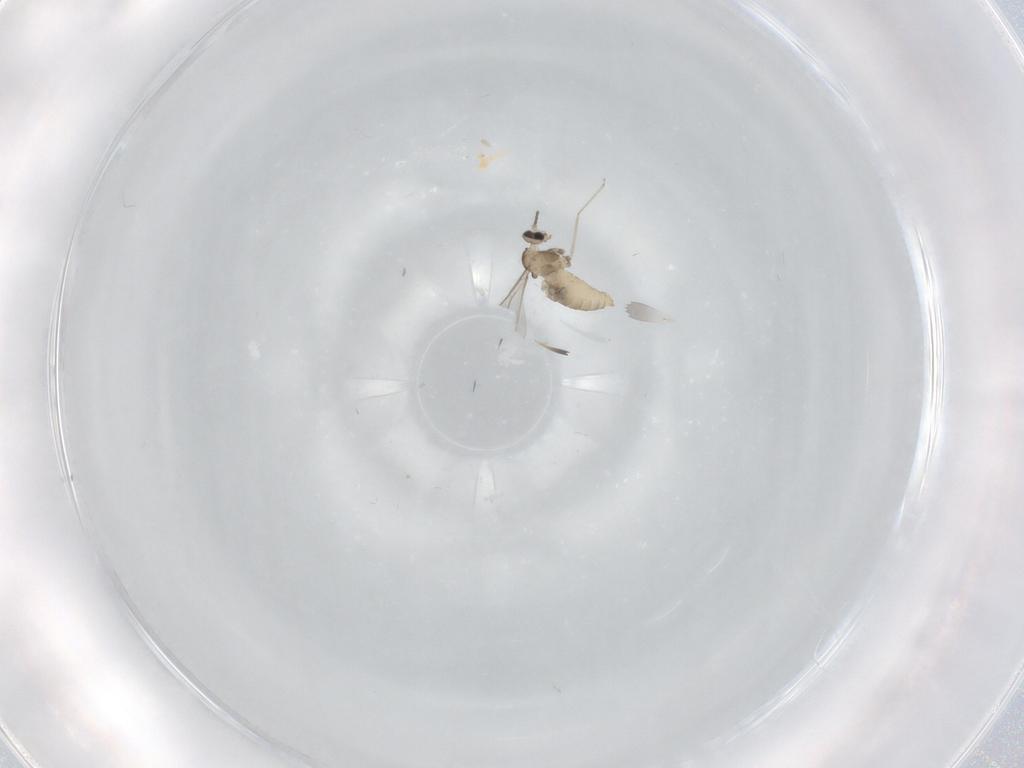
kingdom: Animalia
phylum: Arthropoda
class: Insecta
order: Diptera
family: Cecidomyiidae
